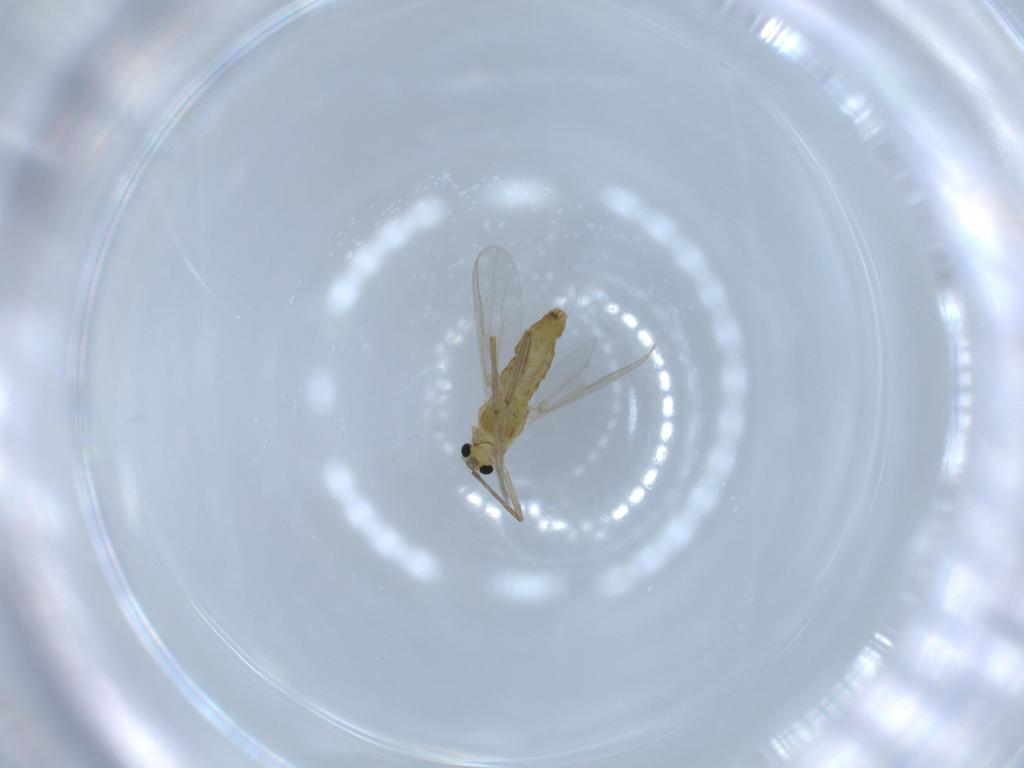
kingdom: Animalia
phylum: Arthropoda
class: Insecta
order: Diptera
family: Chironomidae
